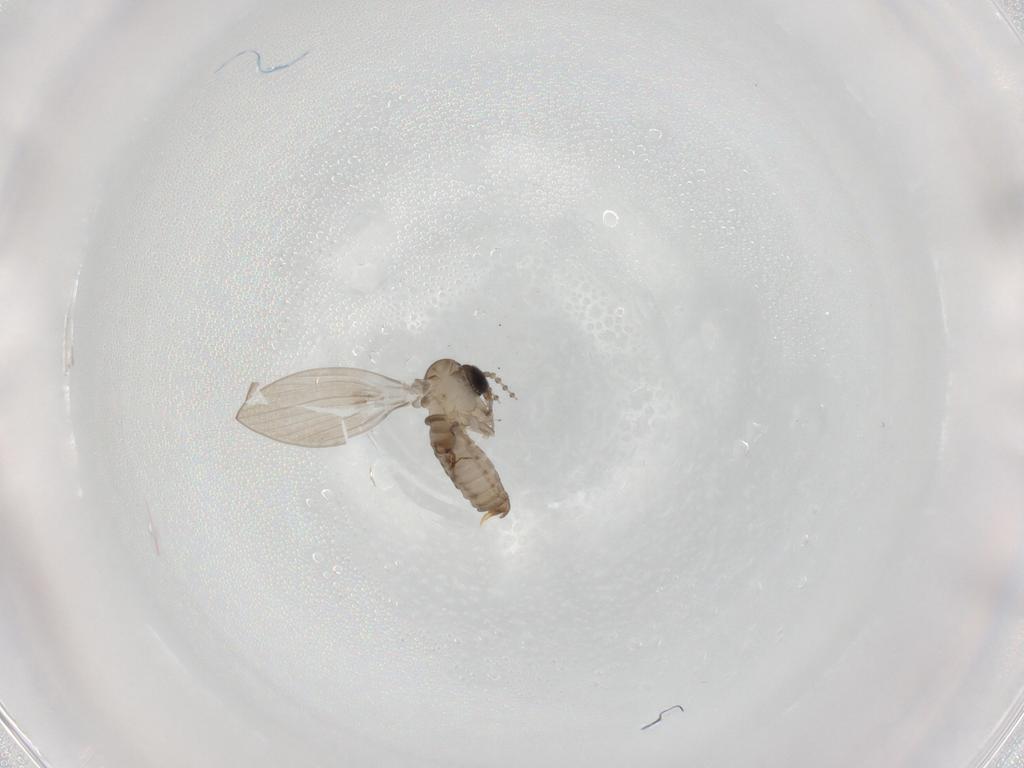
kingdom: Animalia
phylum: Arthropoda
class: Insecta
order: Diptera
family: Psychodidae
